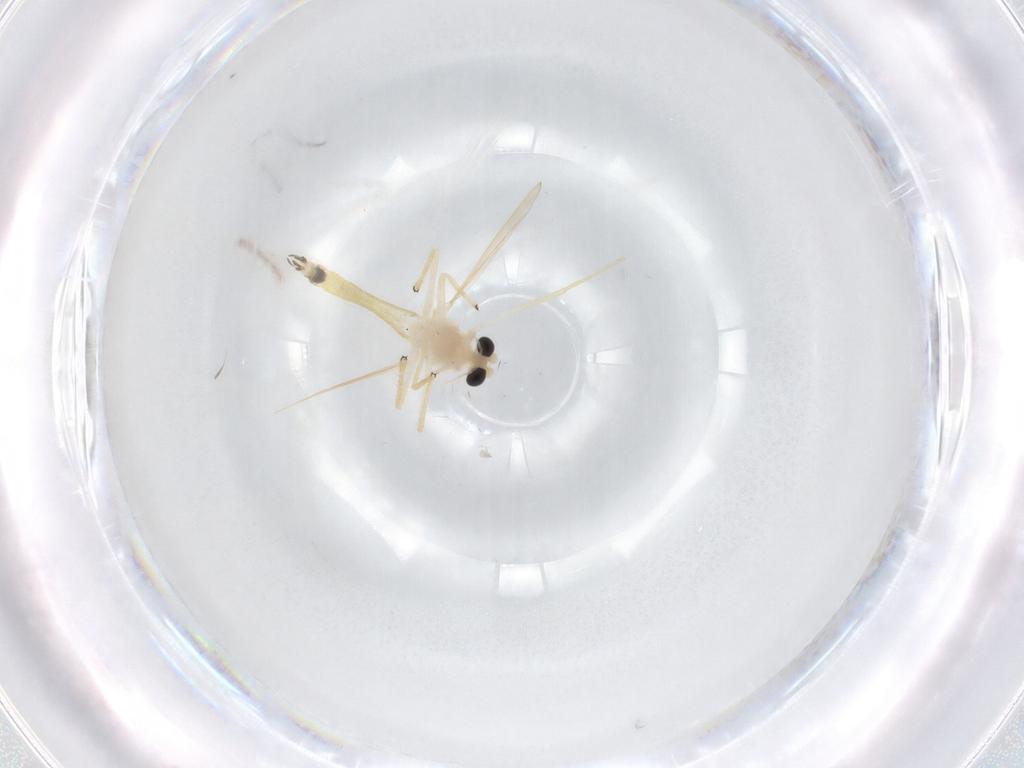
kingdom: Animalia
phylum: Arthropoda
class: Insecta
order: Diptera
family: Chironomidae
